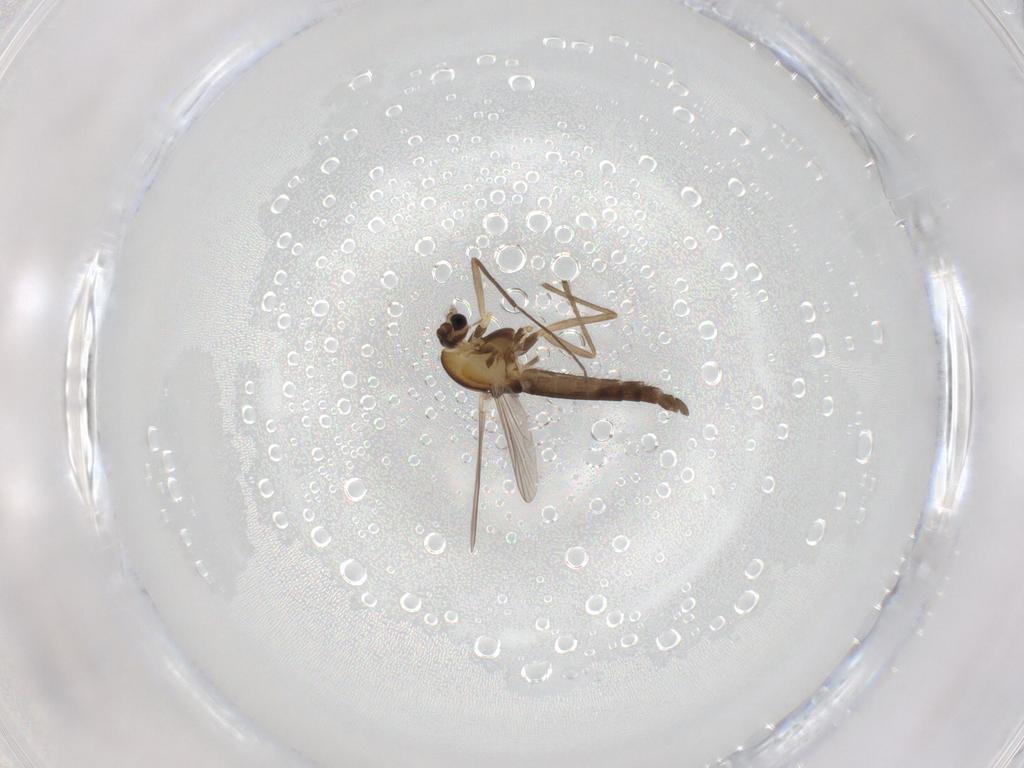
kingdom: Animalia
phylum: Arthropoda
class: Insecta
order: Diptera
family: Chironomidae
